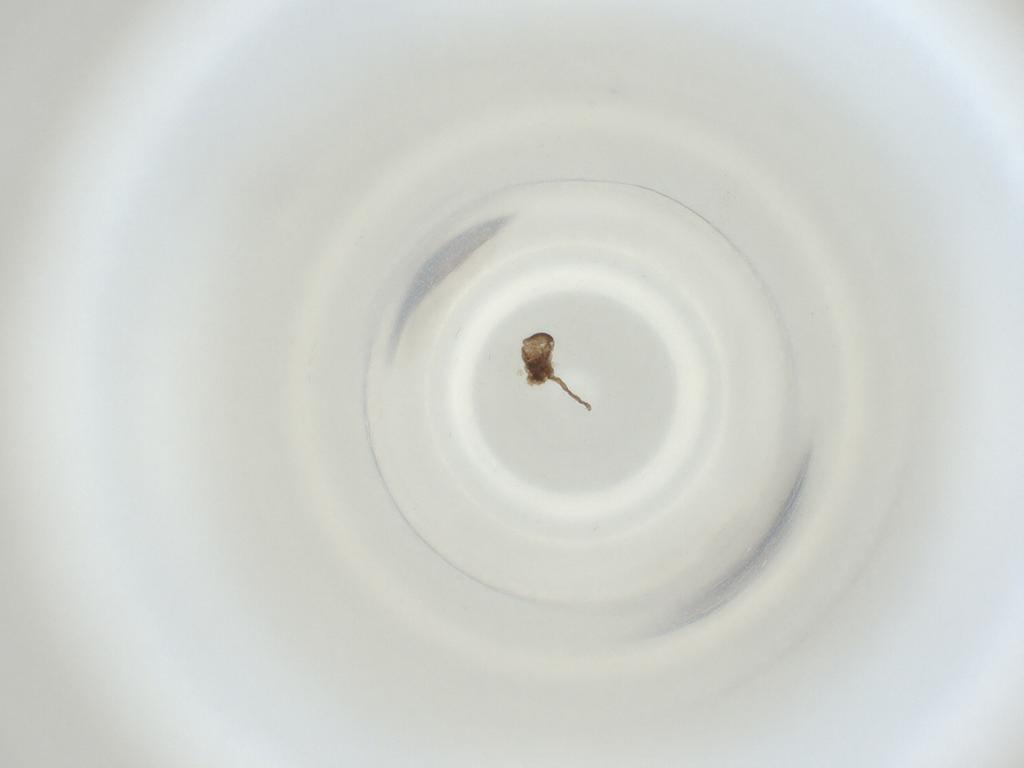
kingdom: Animalia
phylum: Arthropoda
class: Insecta
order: Diptera
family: Cecidomyiidae
